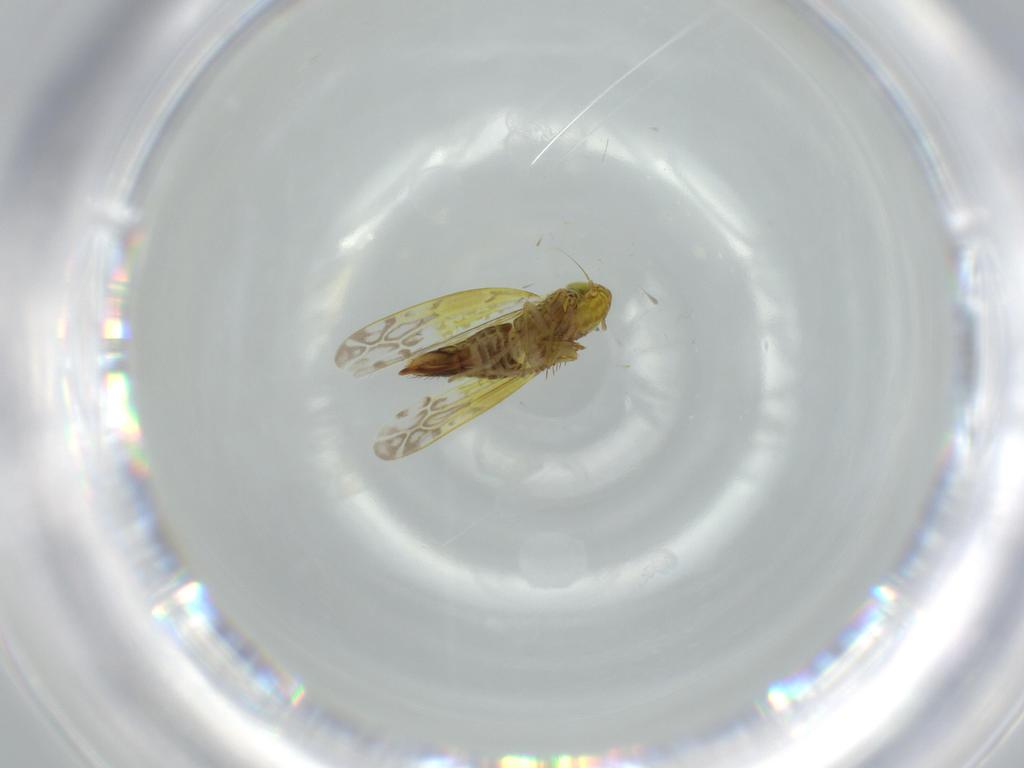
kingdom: Animalia
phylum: Arthropoda
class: Insecta
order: Hemiptera
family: Cicadellidae
